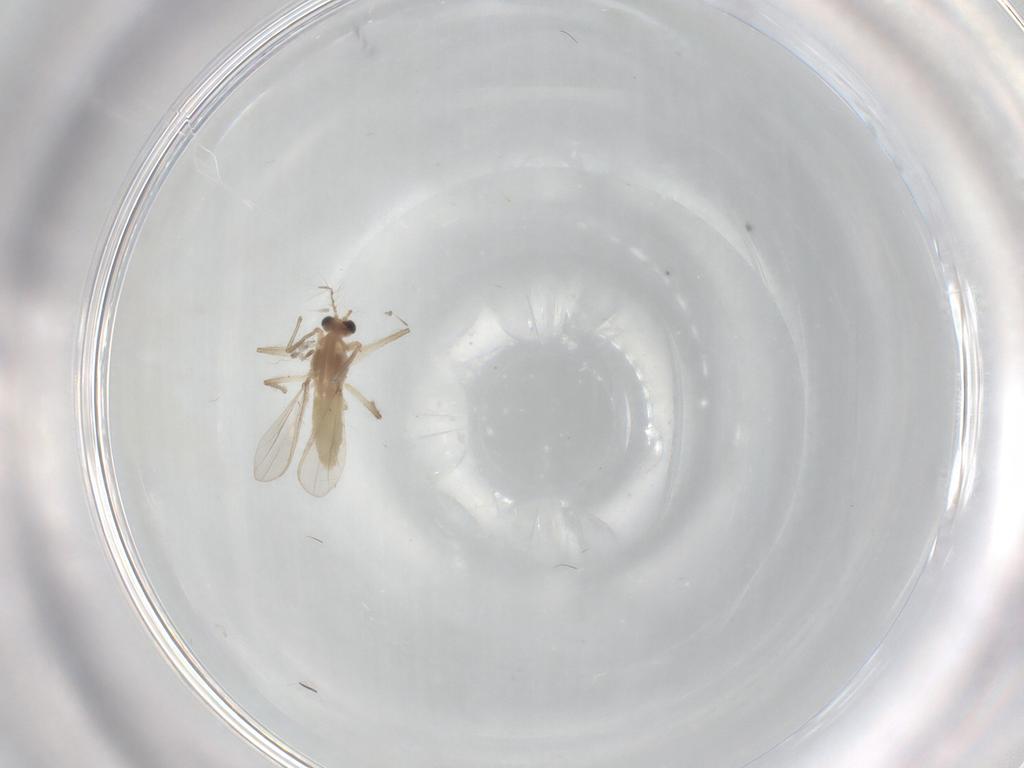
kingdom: Animalia
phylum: Arthropoda
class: Insecta
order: Diptera
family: Chironomidae
